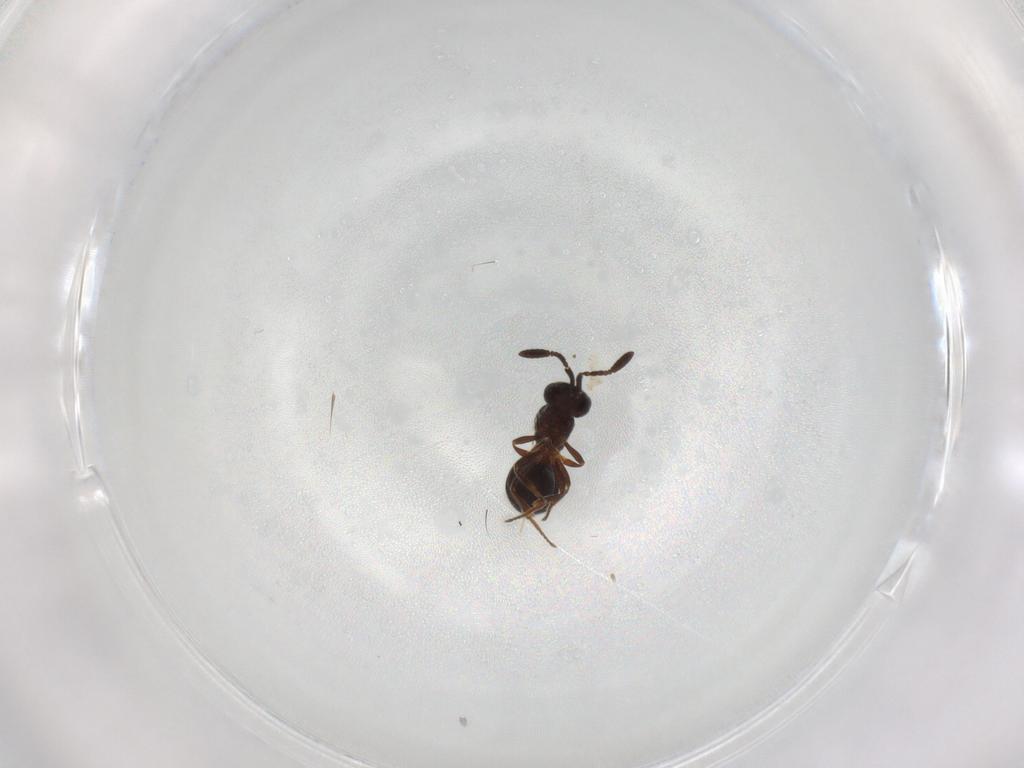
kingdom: Animalia
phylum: Arthropoda
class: Insecta
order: Hymenoptera
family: Scelionidae
